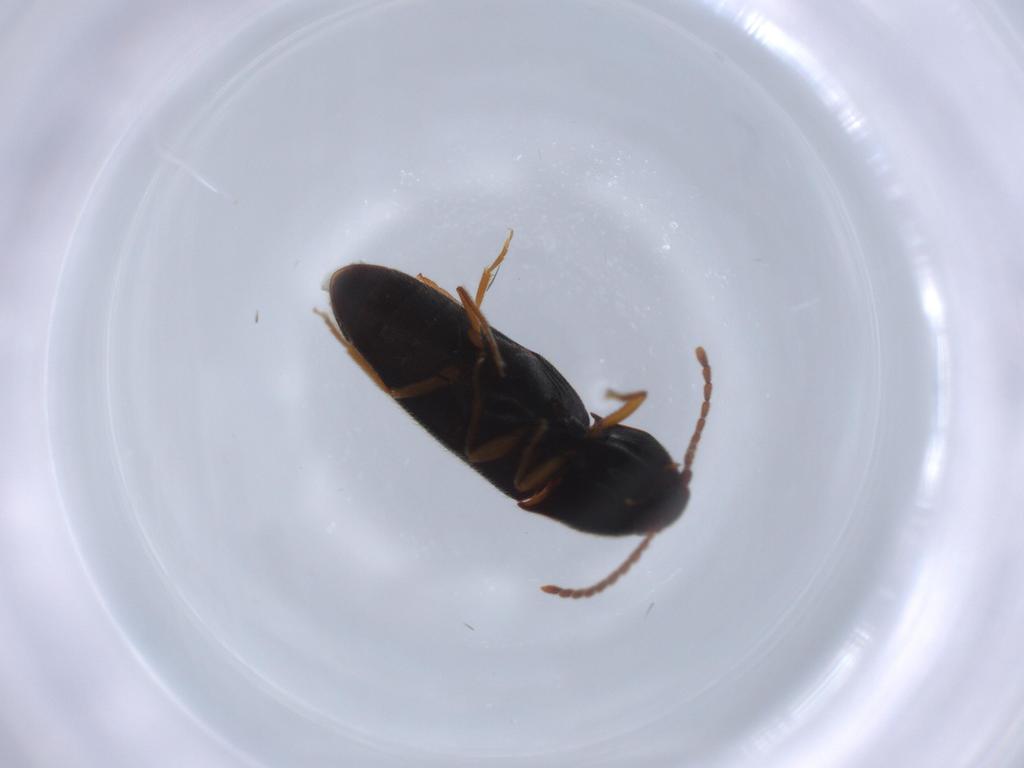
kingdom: Animalia
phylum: Arthropoda
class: Insecta
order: Coleoptera
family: Elateridae
